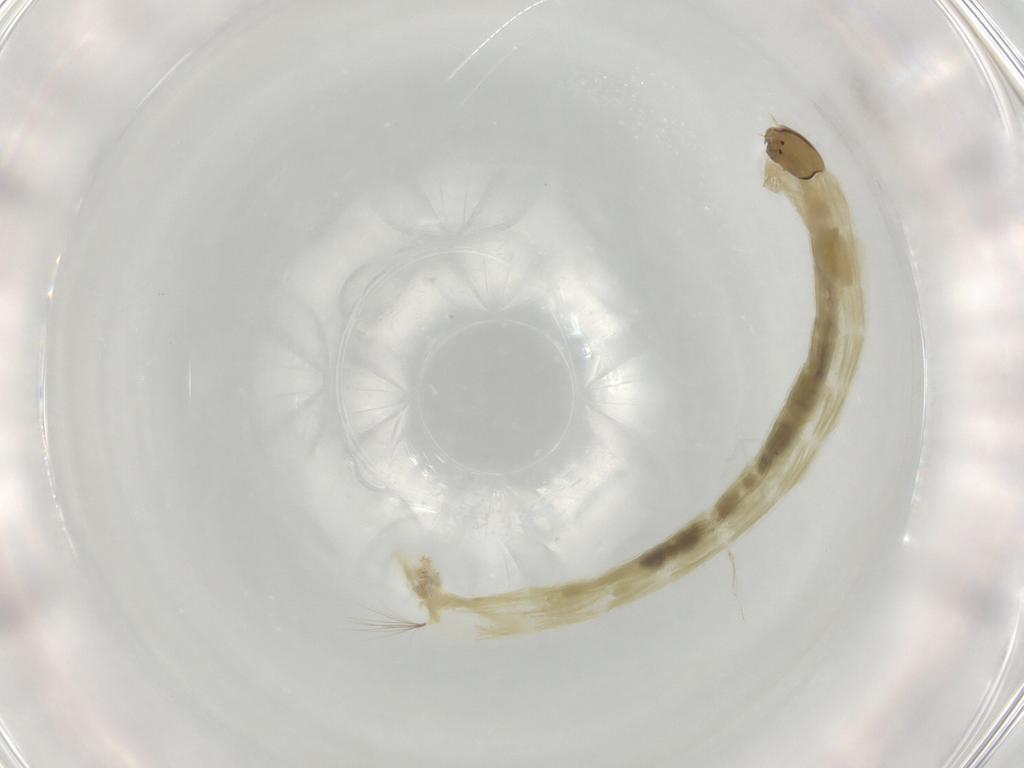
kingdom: Animalia
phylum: Arthropoda
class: Insecta
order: Diptera
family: Chironomidae
